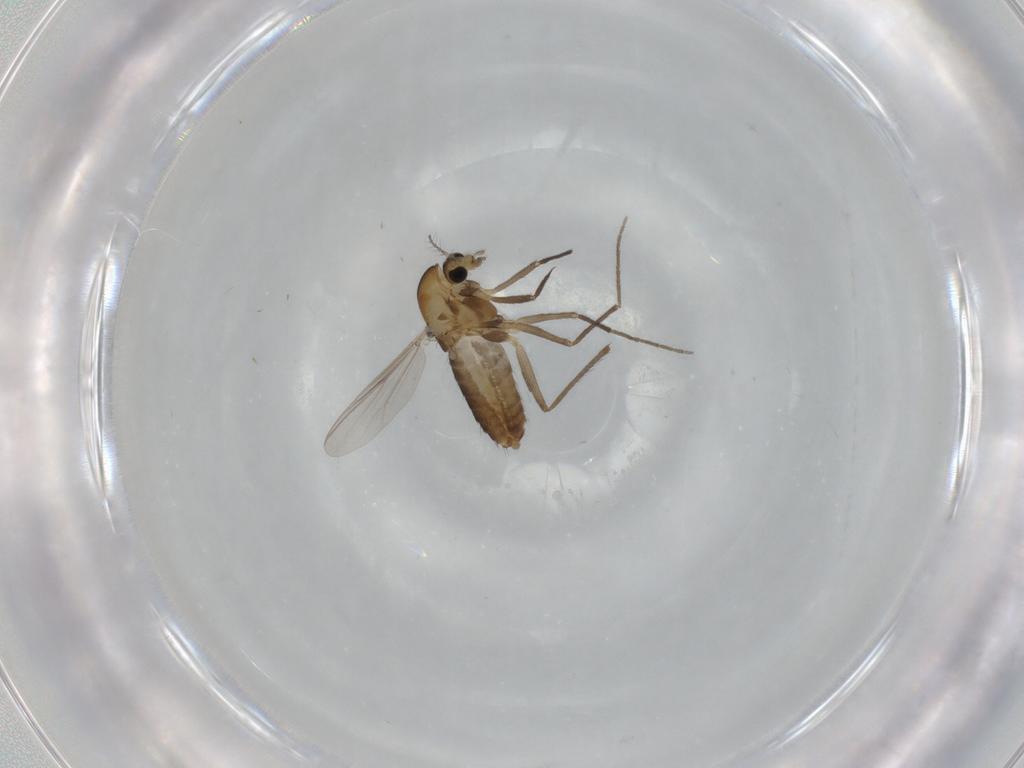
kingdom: Animalia
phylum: Arthropoda
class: Insecta
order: Diptera
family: Chironomidae
